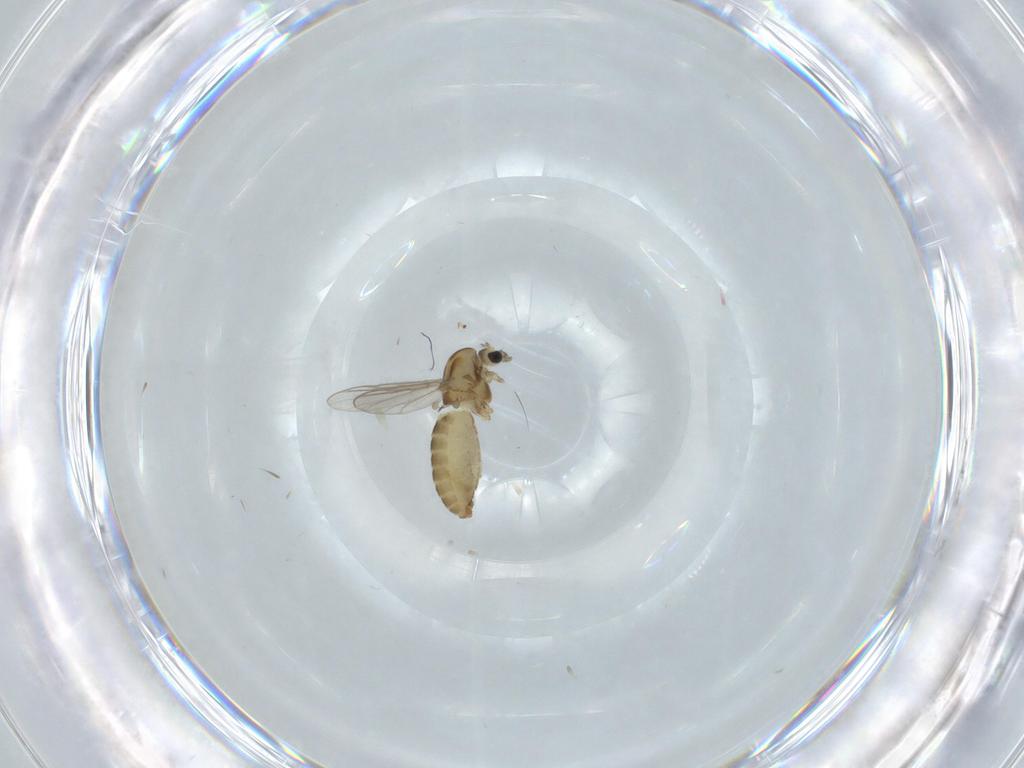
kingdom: Animalia
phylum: Arthropoda
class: Insecta
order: Diptera
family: Chironomidae
